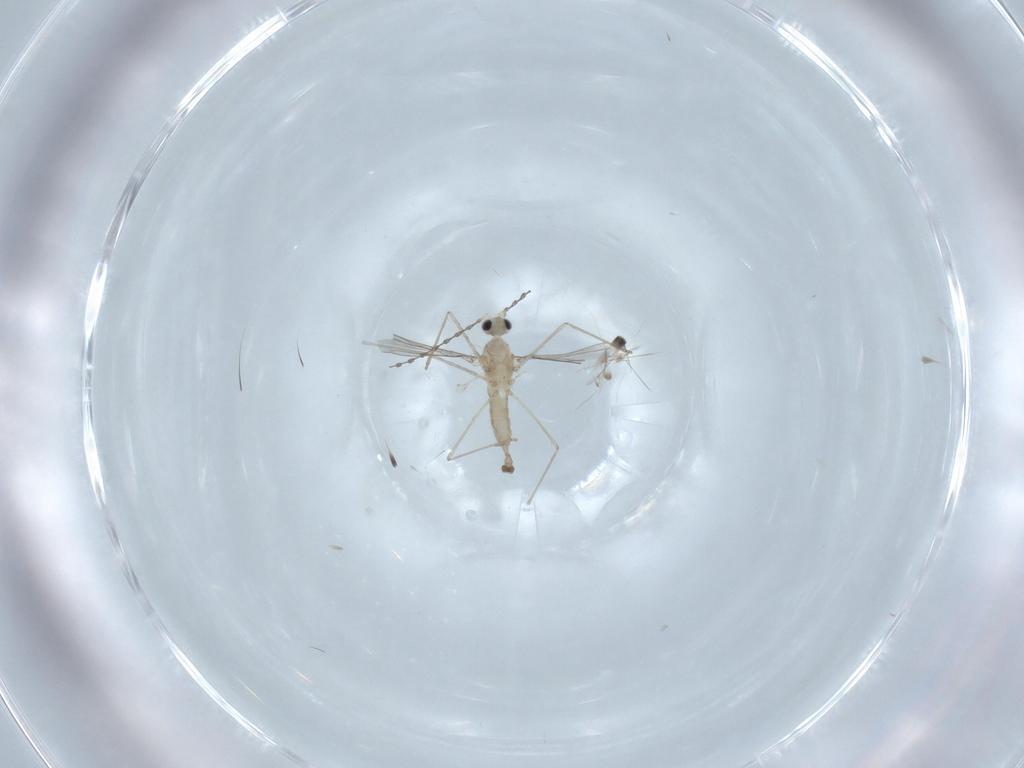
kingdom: Animalia
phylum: Arthropoda
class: Insecta
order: Diptera
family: Cecidomyiidae
